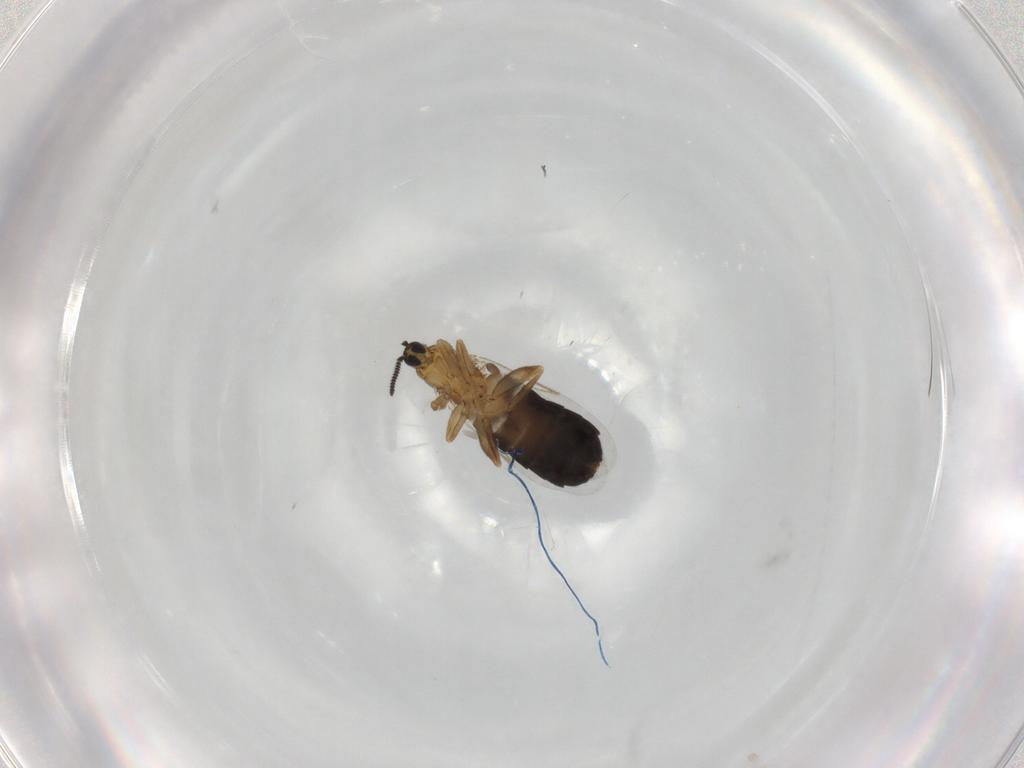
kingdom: Animalia
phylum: Arthropoda
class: Insecta
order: Diptera
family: Scatopsidae
